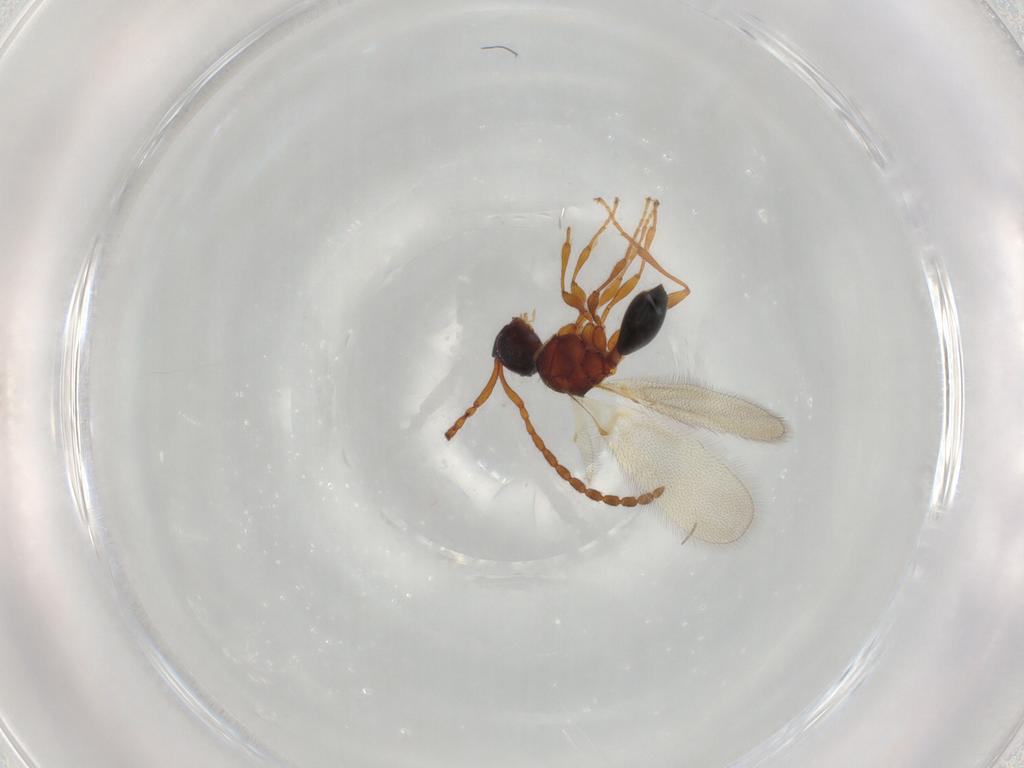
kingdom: Animalia
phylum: Arthropoda
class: Insecta
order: Hymenoptera
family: Diapriidae
